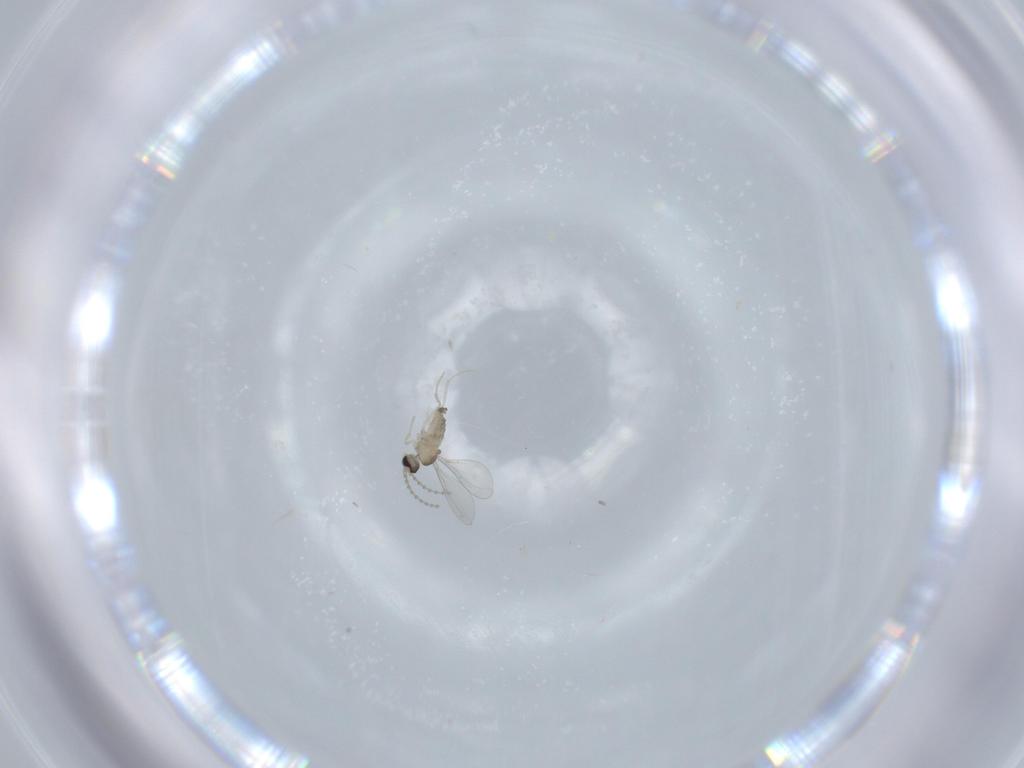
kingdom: Animalia
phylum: Arthropoda
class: Insecta
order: Diptera
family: Cecidomyiidae
